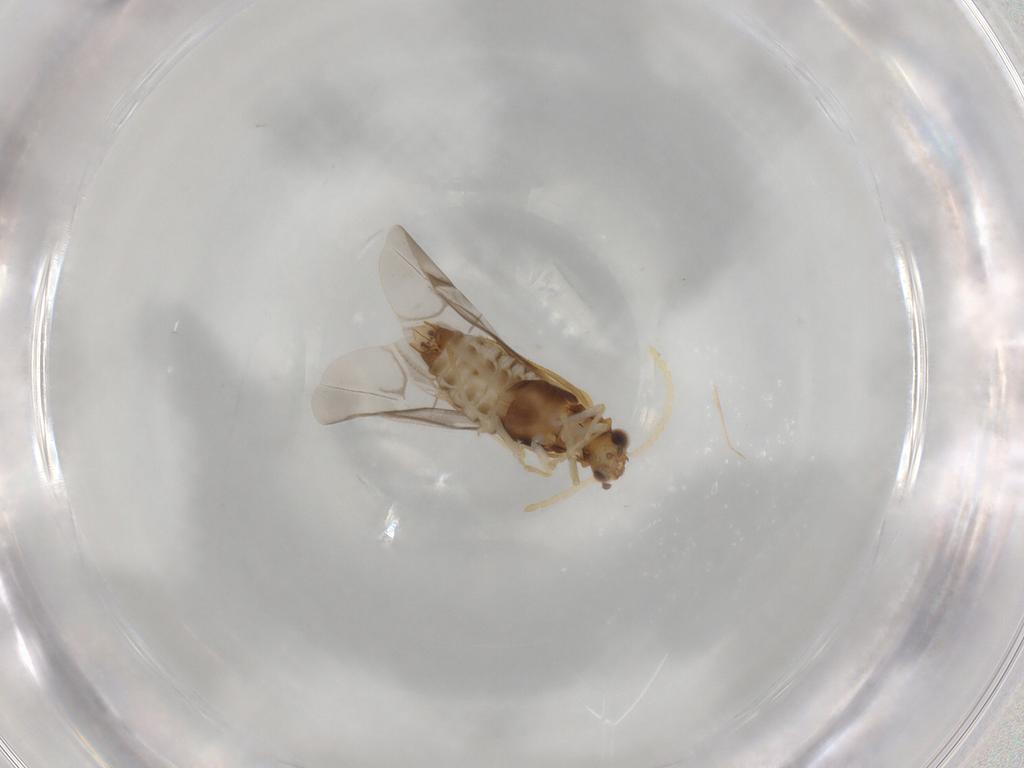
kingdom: Animalia
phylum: Arthropoda
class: Insecta
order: Coleoptera
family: Cantharidae
